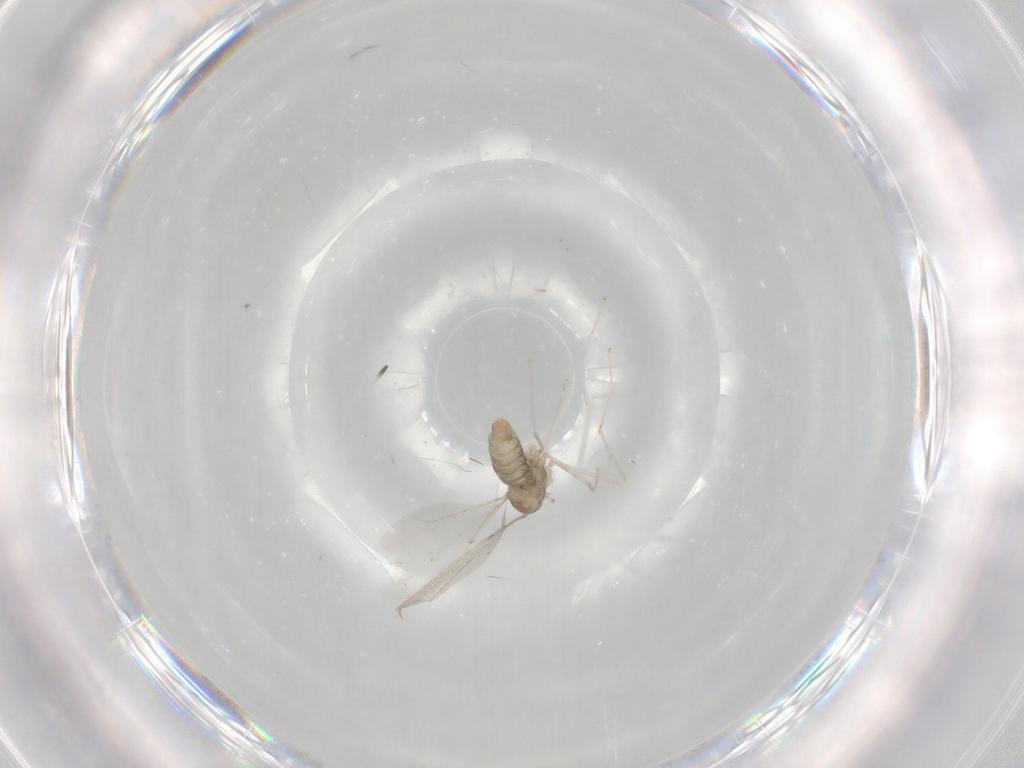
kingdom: Animalia
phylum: Arthropoda
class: Insecta
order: Diptera
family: Cecidomyiidae
